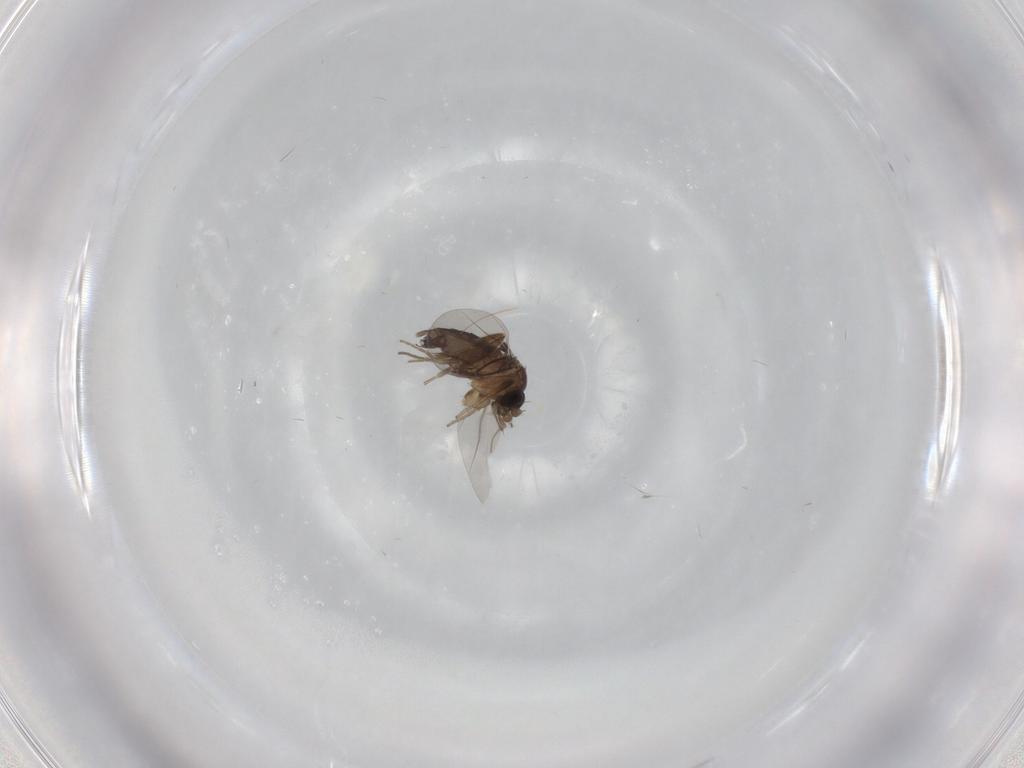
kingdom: Animalia
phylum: Arthropoda
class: Insecta
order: Diptera
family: Phoridae
